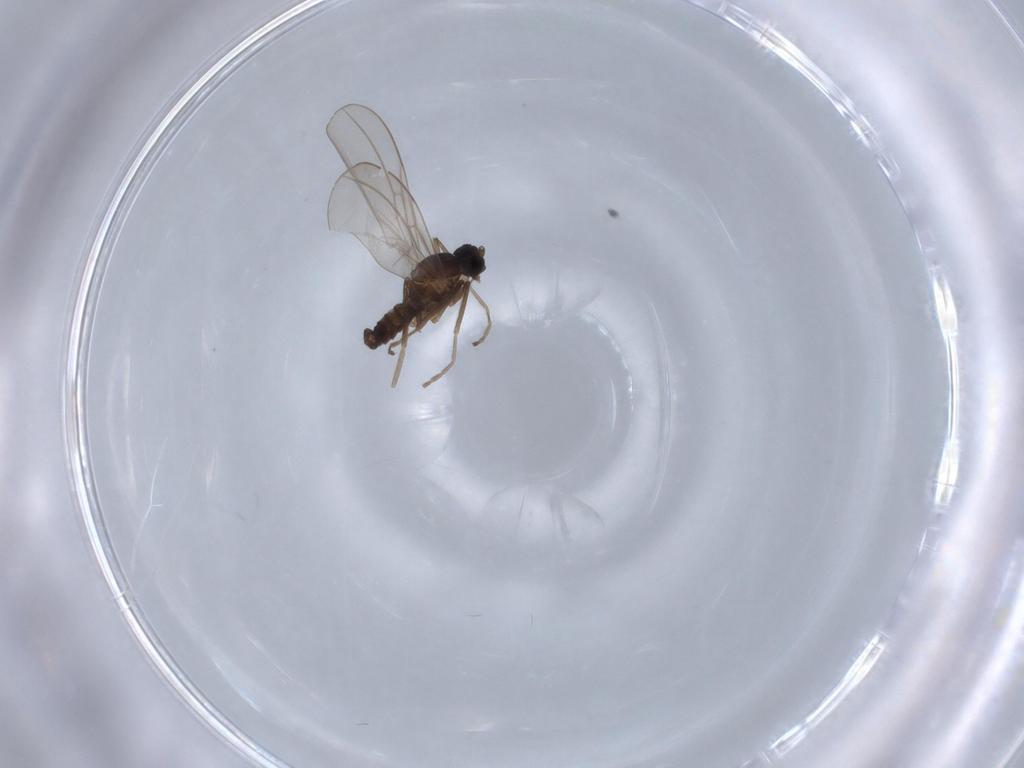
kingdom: Animalia
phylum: Arthropoda
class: Insecta
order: Diptera
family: Cecidomyiidae
